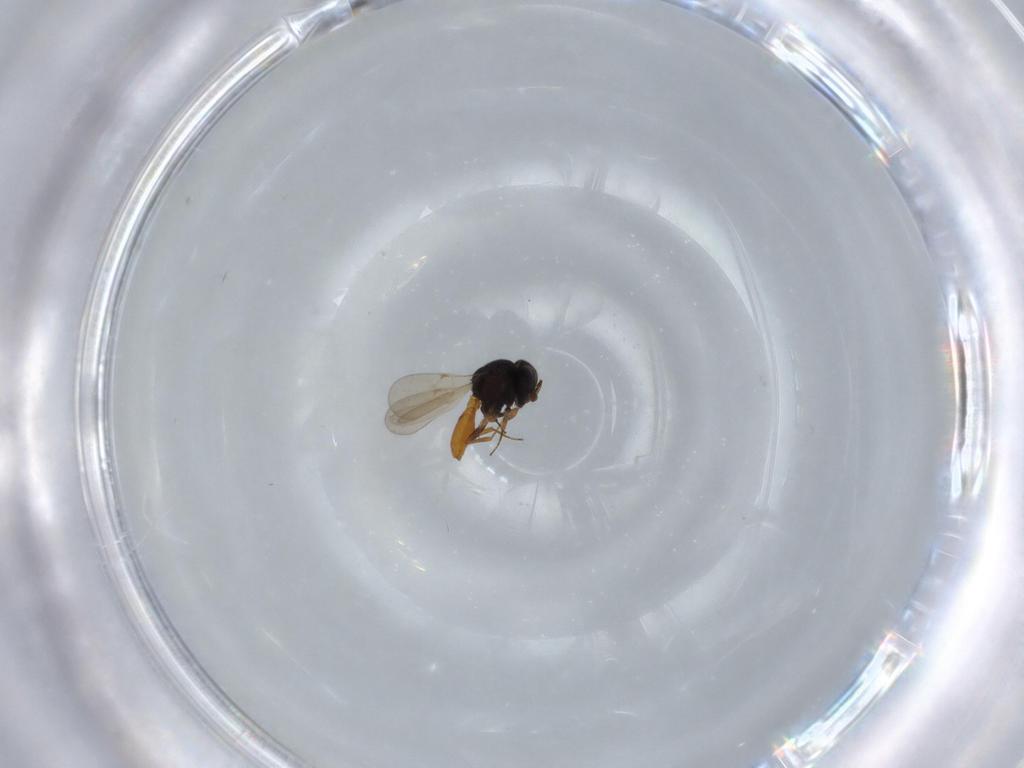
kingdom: Animalia
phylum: Arthropoda
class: Insecta
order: Hymenoptera
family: Scelionidae
